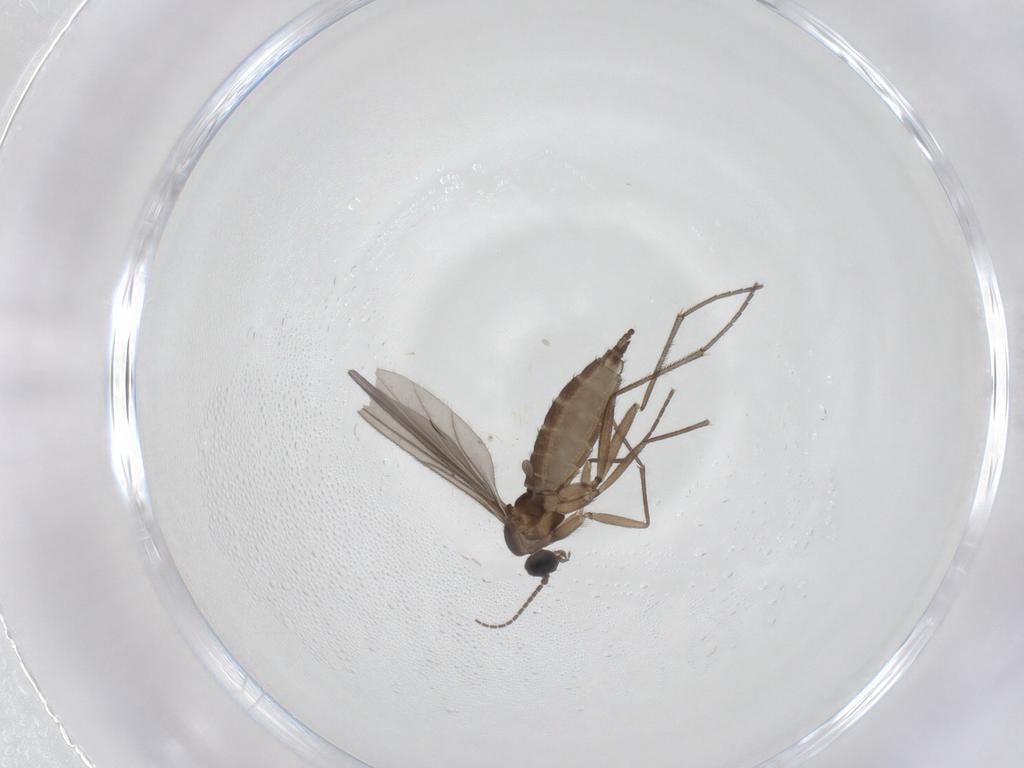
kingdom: Animalia
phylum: Arthropoda
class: Insecta
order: Diptera
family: Sciaridae
